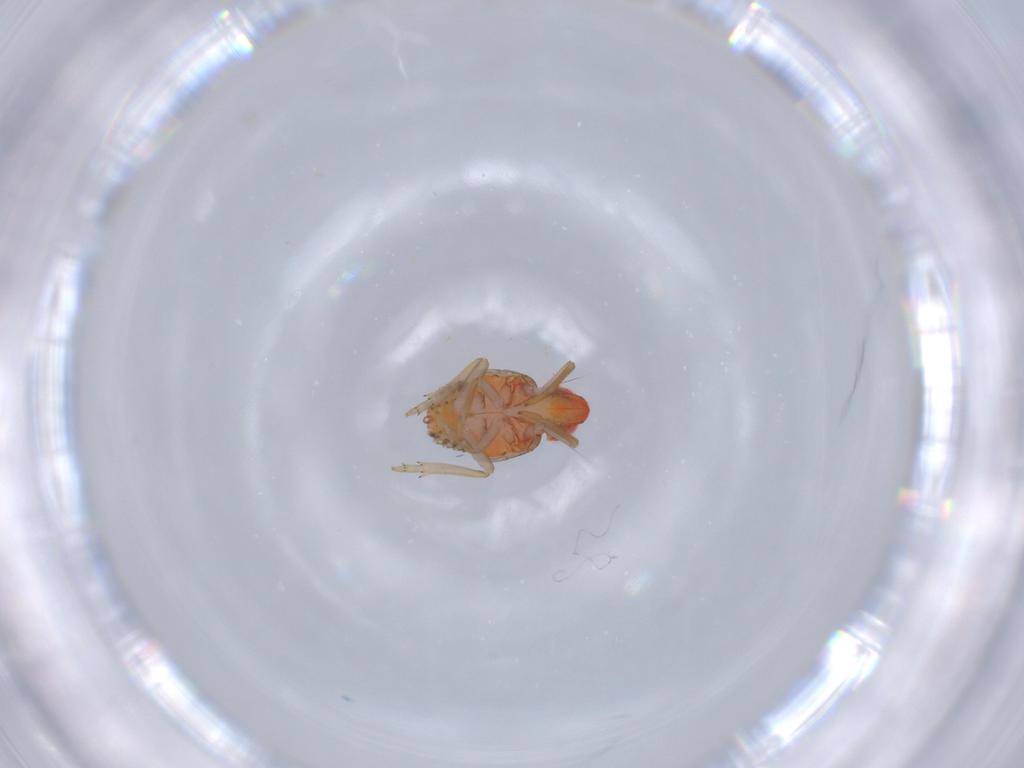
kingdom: Animalia
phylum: Arthropoda
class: Insecta
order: Hemiptera
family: Fulgoroidea_incertae_sedis
